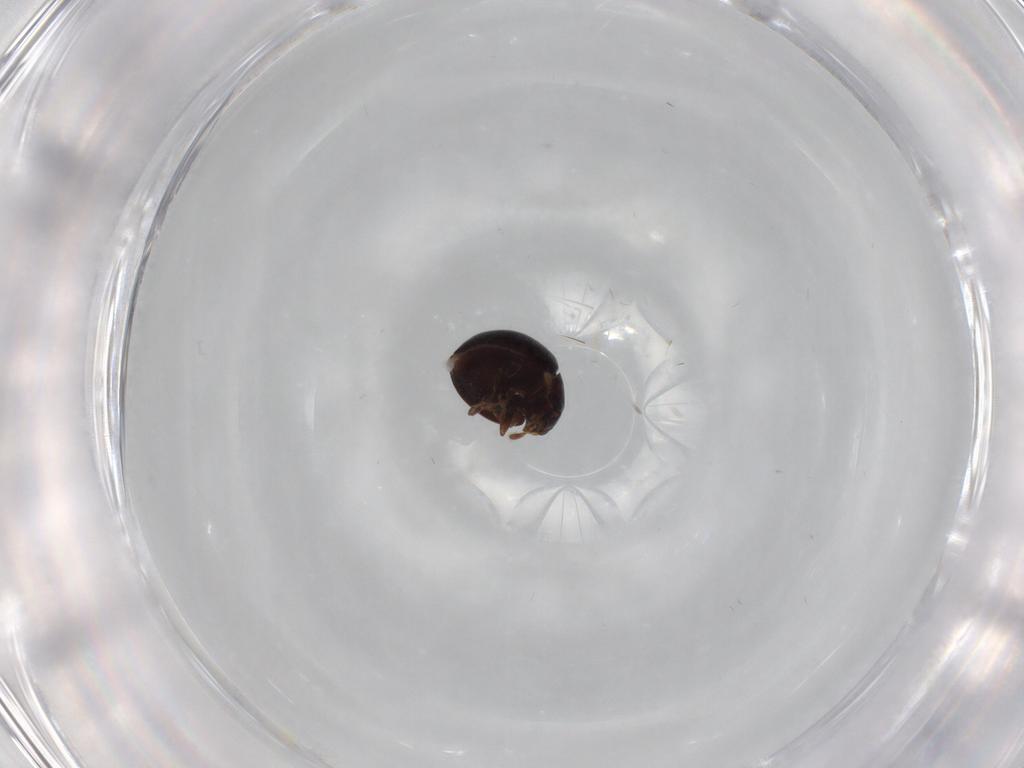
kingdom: Animalia
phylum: Arthropoda
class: Insecta
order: Coleoptera
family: Anamorphidae
